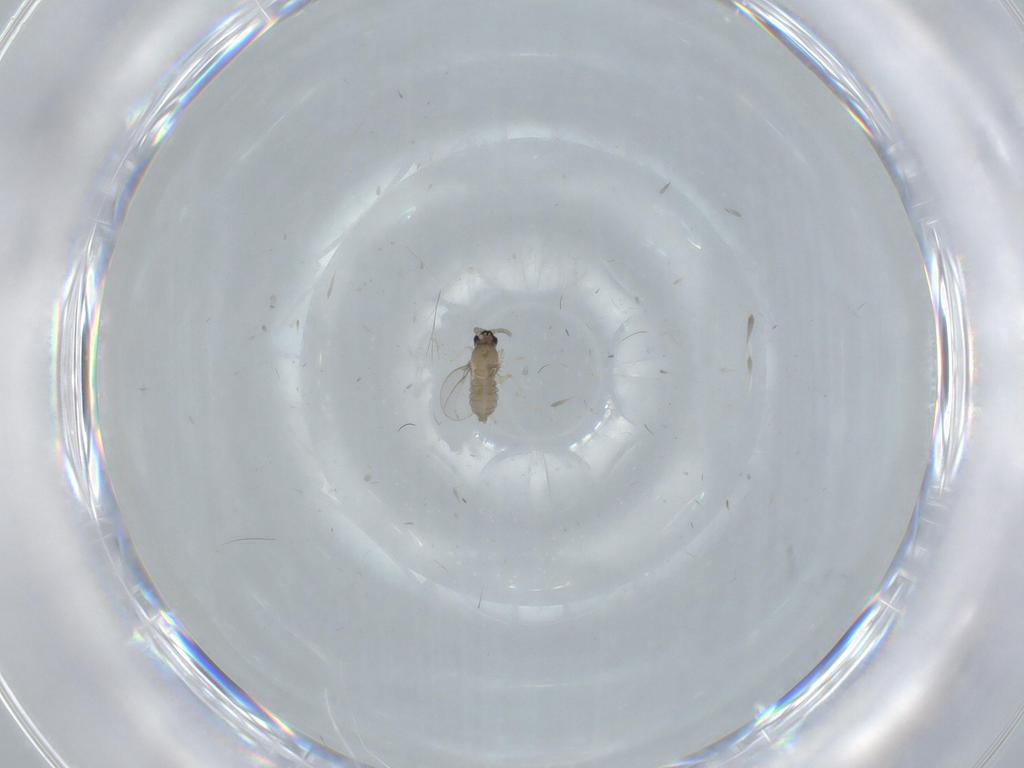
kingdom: Animalia
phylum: Arthropoda
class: Insecta
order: Diptera
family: Cecidomyiidae
